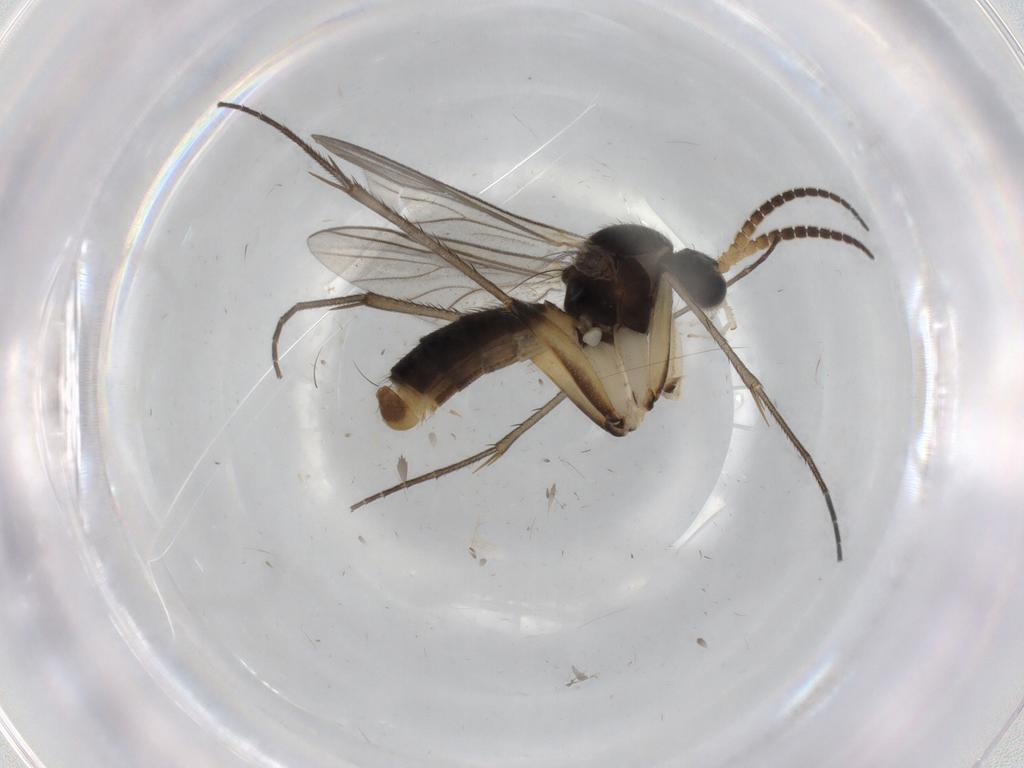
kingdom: Animalia
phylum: Arthropoda
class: Insecta
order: Diptera
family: Mycetophilidae
